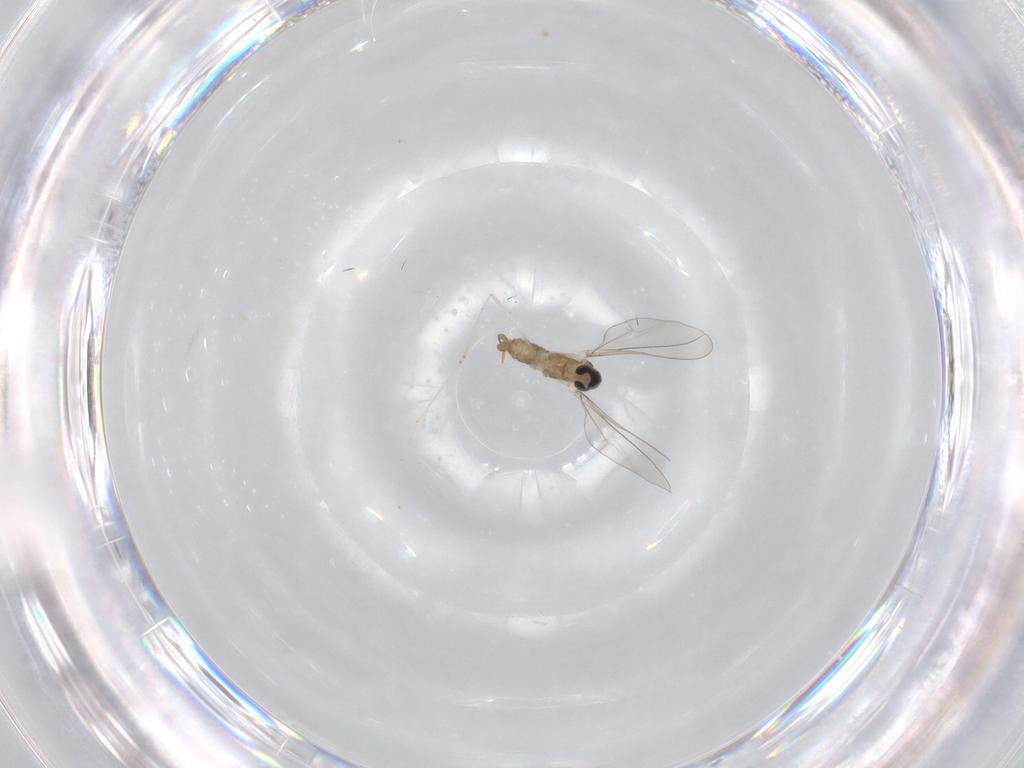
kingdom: Animalia
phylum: Arthropoda
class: Insecta
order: Diptera
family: Cecidomyiidae
